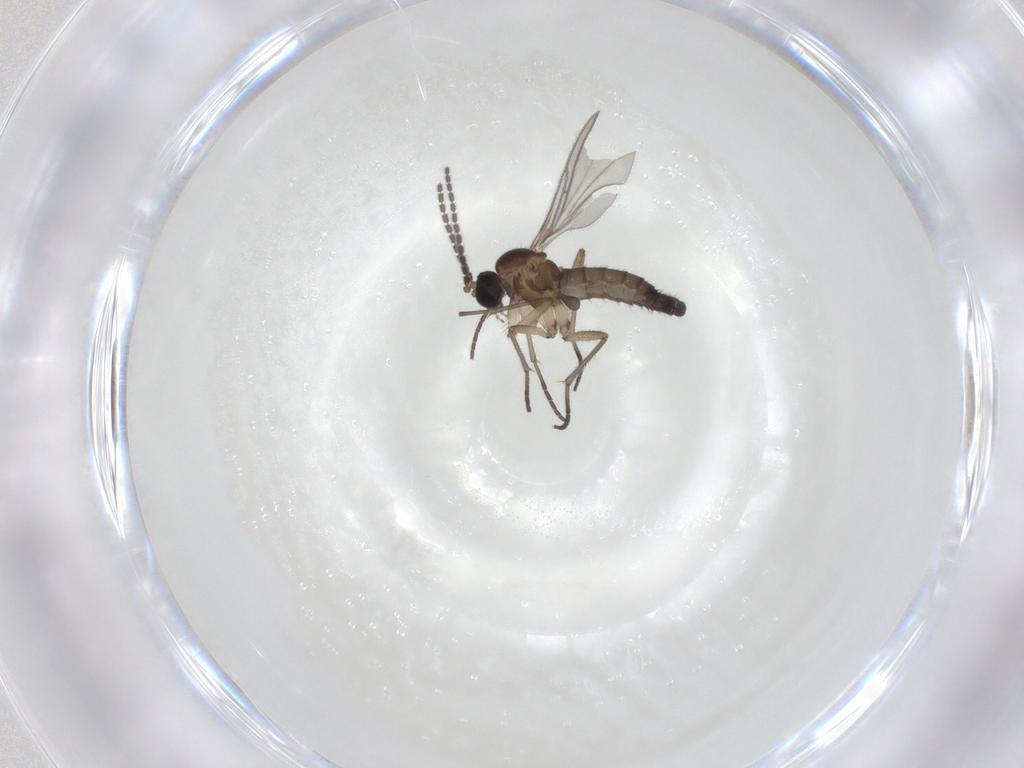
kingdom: Animalia
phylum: Arthropoda
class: Insecta
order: Diptera
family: Sciaridae
